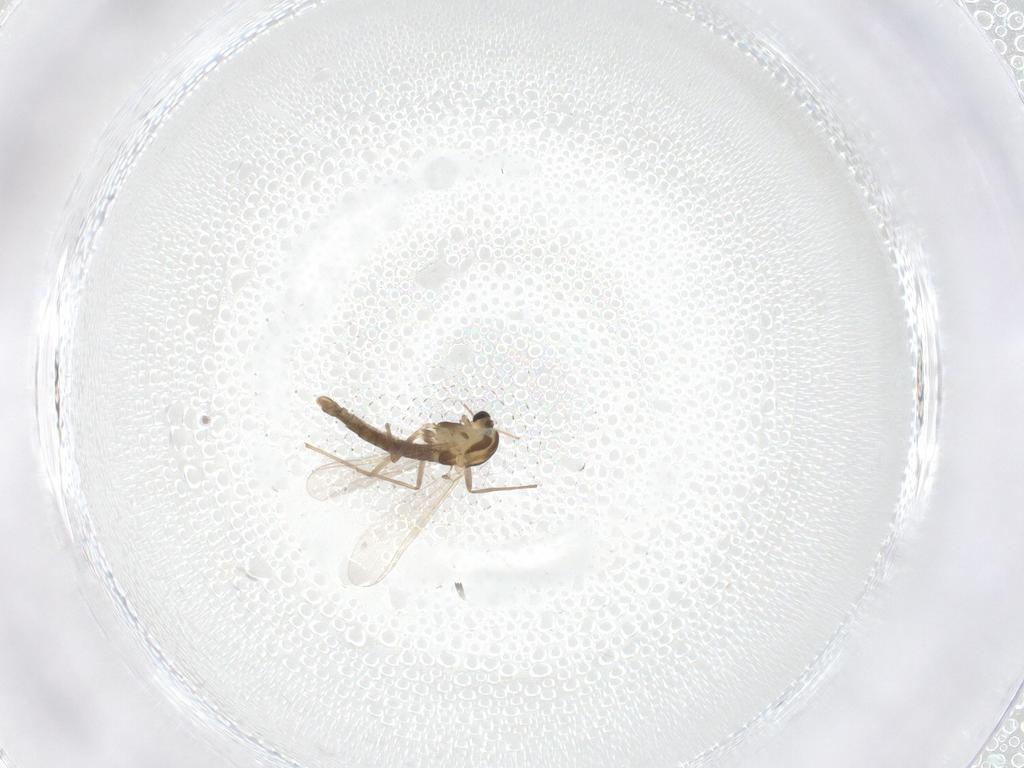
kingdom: Animalia
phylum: Arthropoda
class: Insecta
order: Diptera
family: Chironomidae
